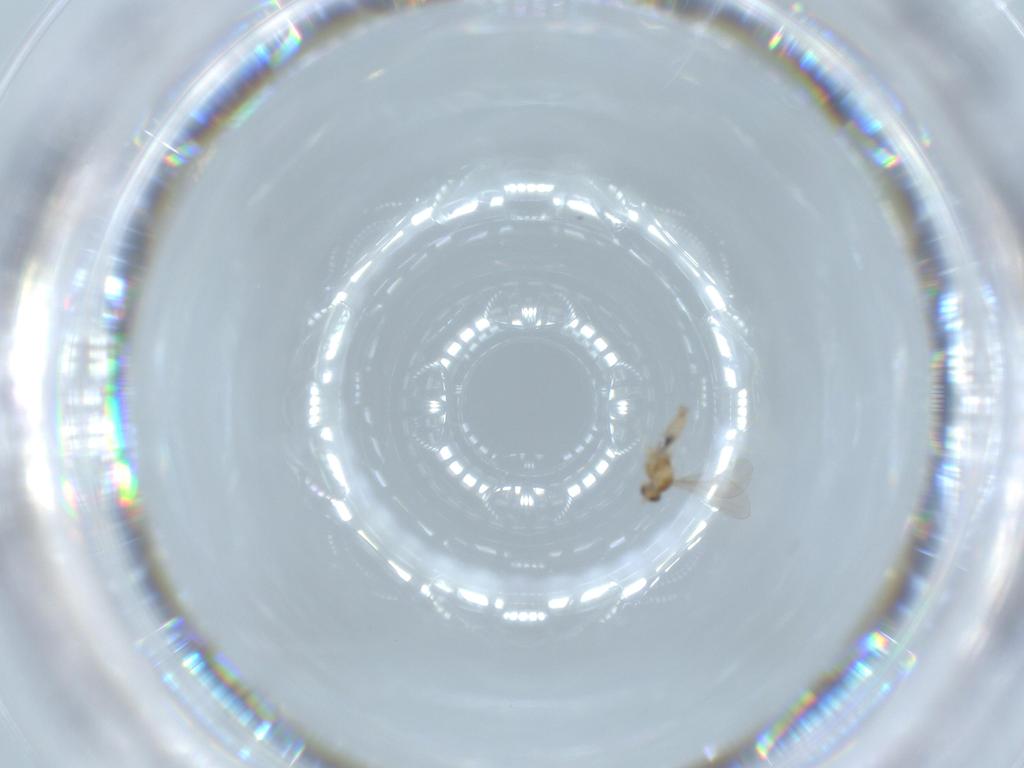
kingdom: Animalia
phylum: Arthropoda
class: Insecta
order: Diptera
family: Cecidomyiidae
